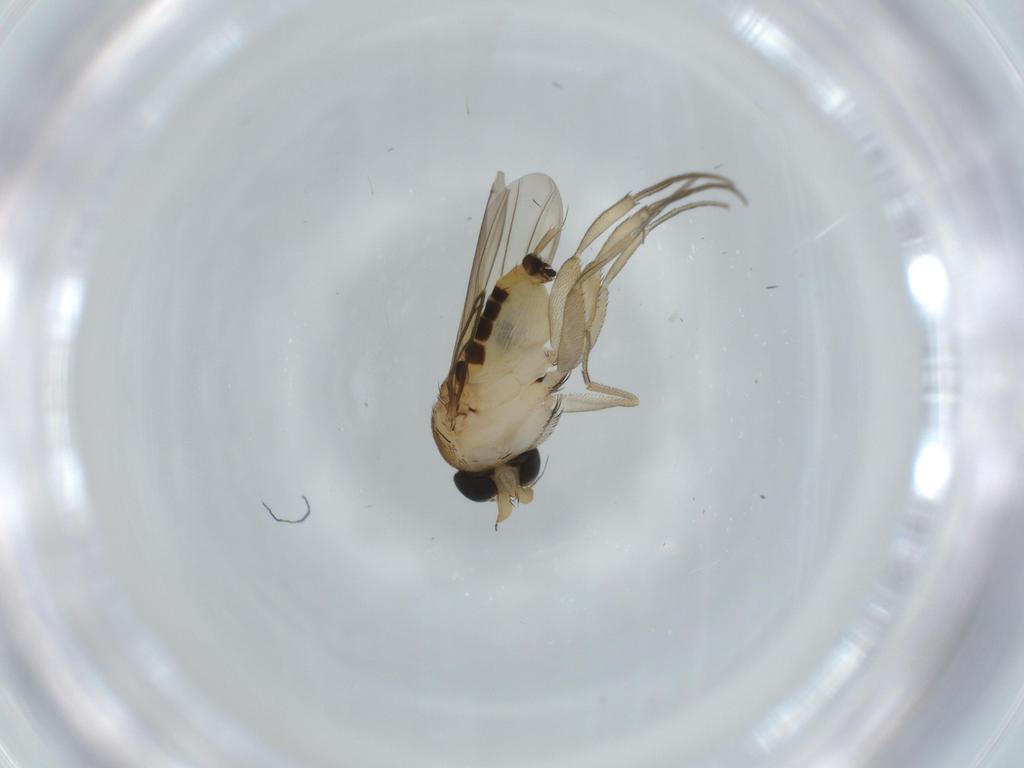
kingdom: Animalia
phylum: Arthropoda
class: Insecta
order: Diptera
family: Phoridae
